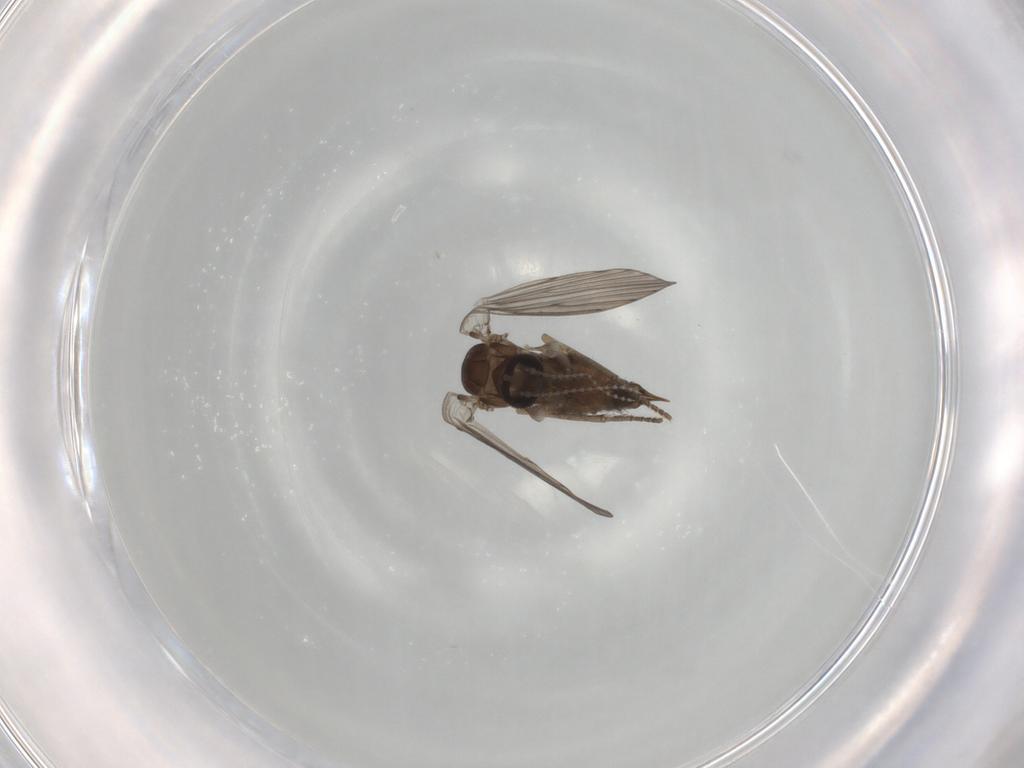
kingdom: Animalia
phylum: Arthropoda
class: Insecta
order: Diptera
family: Psychodidae
